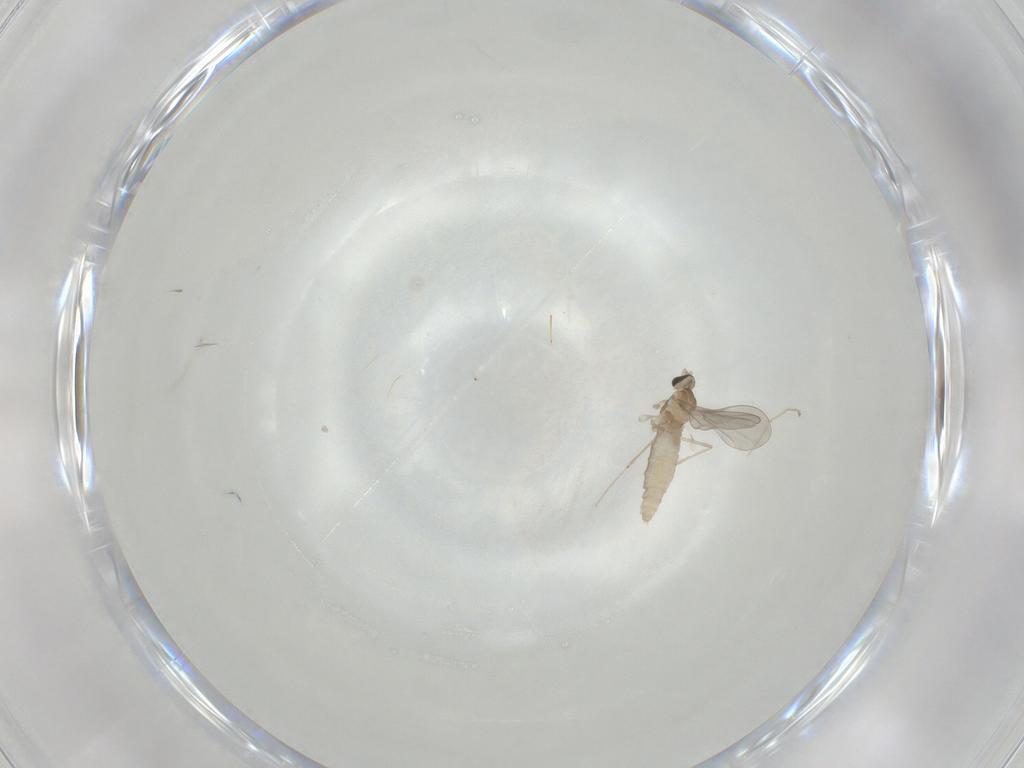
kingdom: Animalia
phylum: Arthropoda
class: Insecta
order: Diptera
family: Cecidomyiidae
